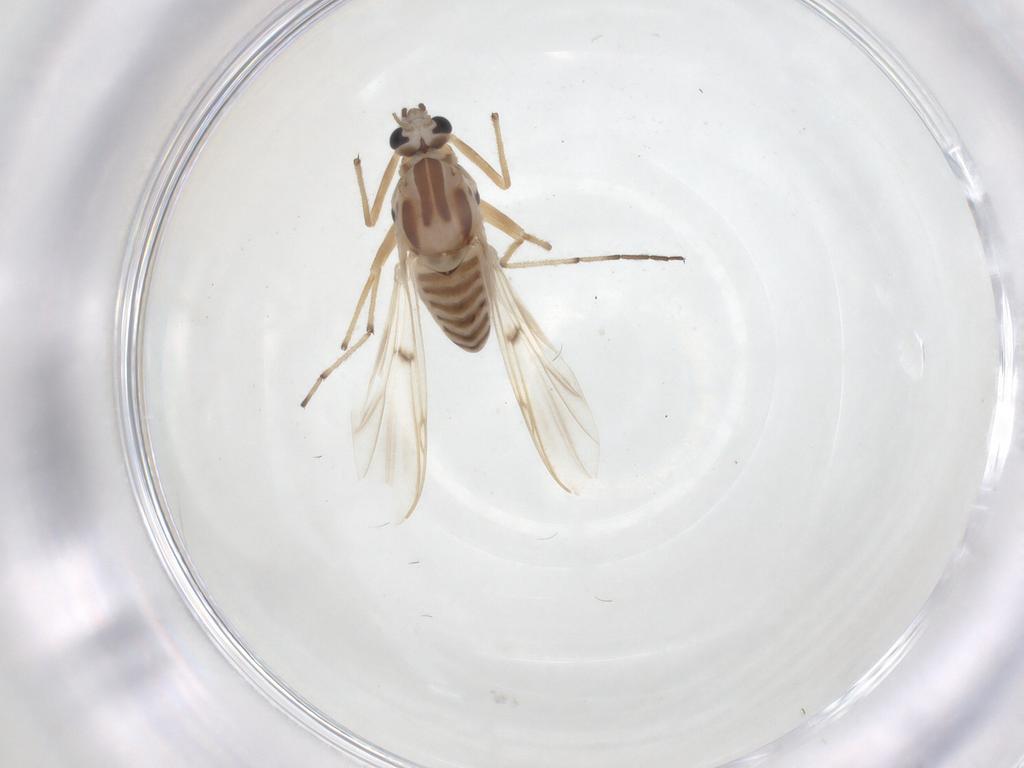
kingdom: Animalia
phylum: Arthropoda
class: Insecta
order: Diptera
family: Chironomidae
